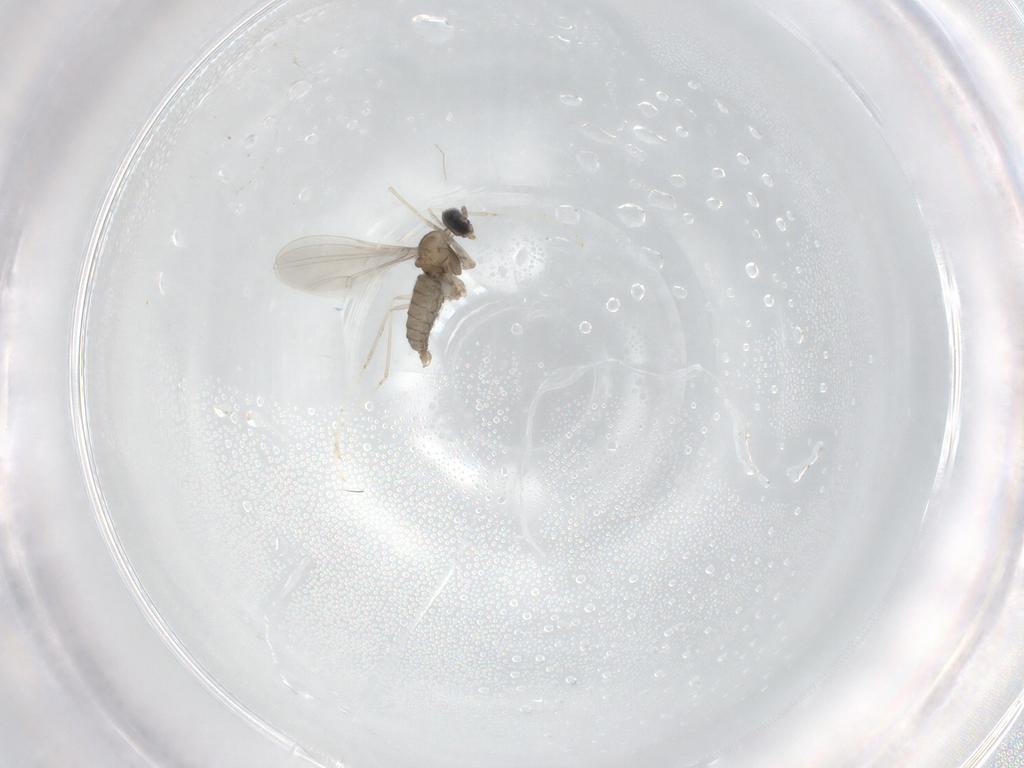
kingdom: Animalia
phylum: Arthropoda
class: Insecta
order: Diptera
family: Cecidomyiidae
